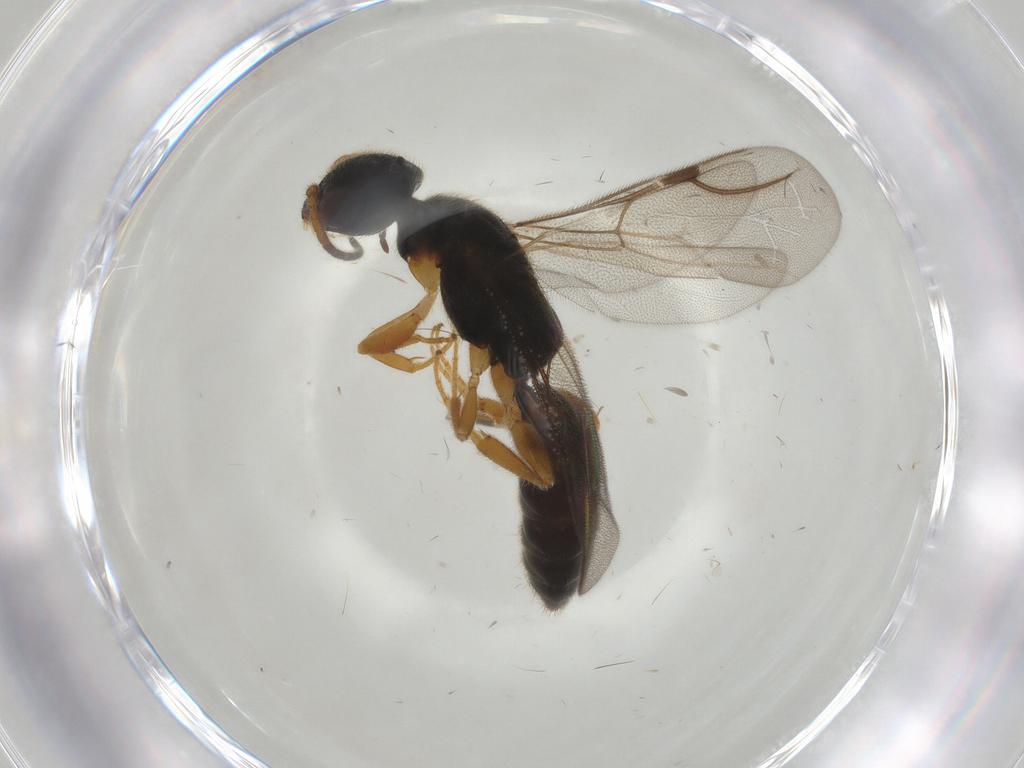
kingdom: Animalia
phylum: Arthropoda
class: Insecta
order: Hymenoptera
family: Eupelmidae
